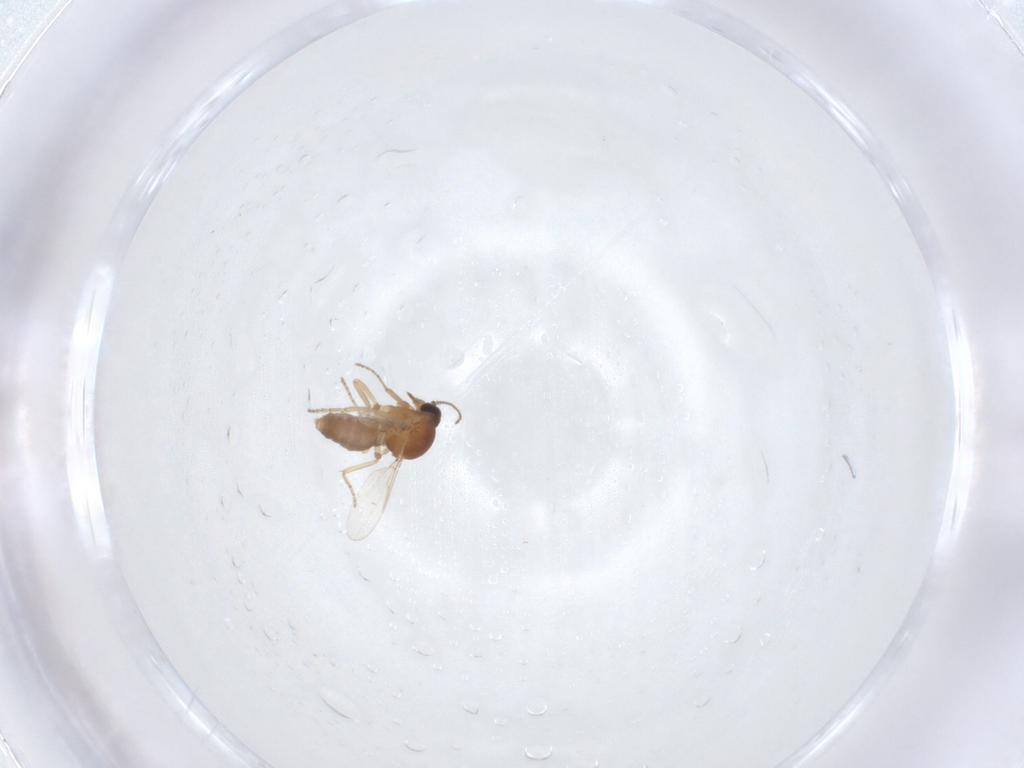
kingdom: Animalia
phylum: Arthropoda
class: Insecta
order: Diptera
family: Ceratopogonidae
